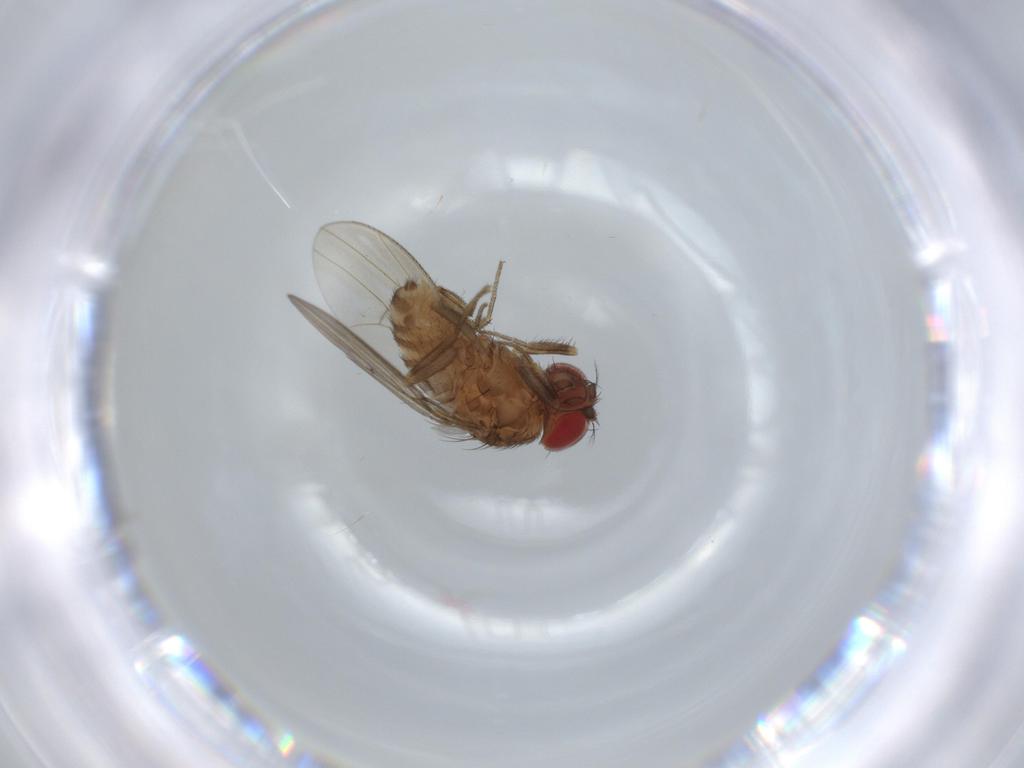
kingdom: Animalia
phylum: Arthropoda
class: Insecta
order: Diptera
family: Drosophilidae
